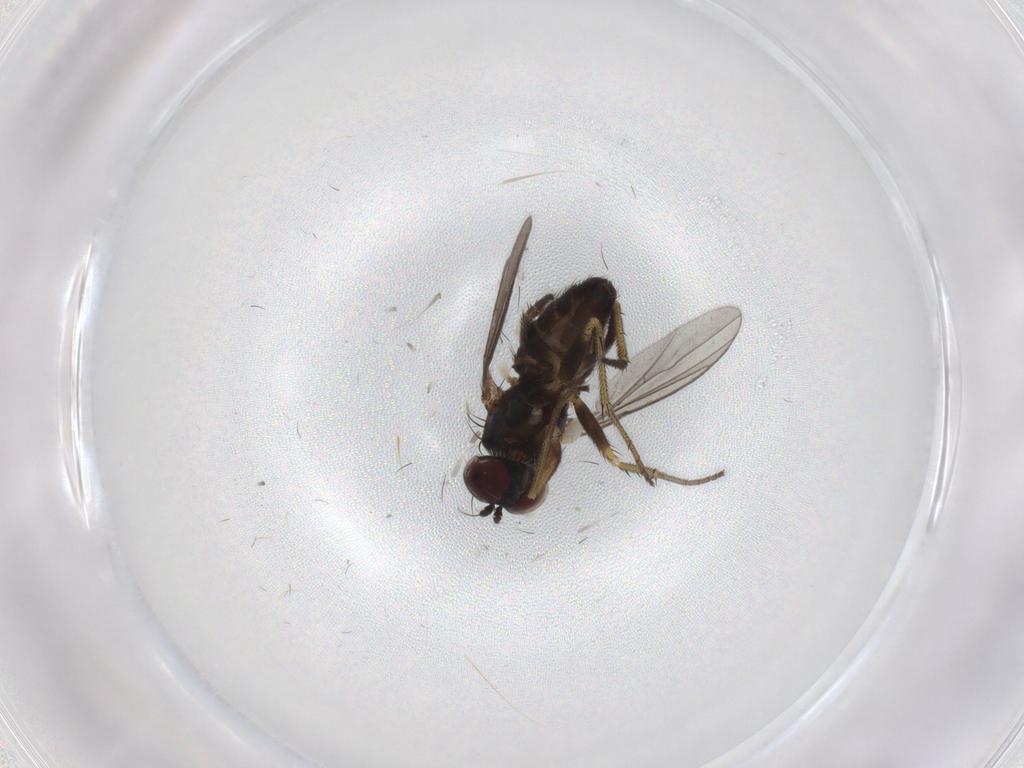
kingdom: Animalia
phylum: Arthropoda
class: Insecta
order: Diptera
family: Dolichopodidae
